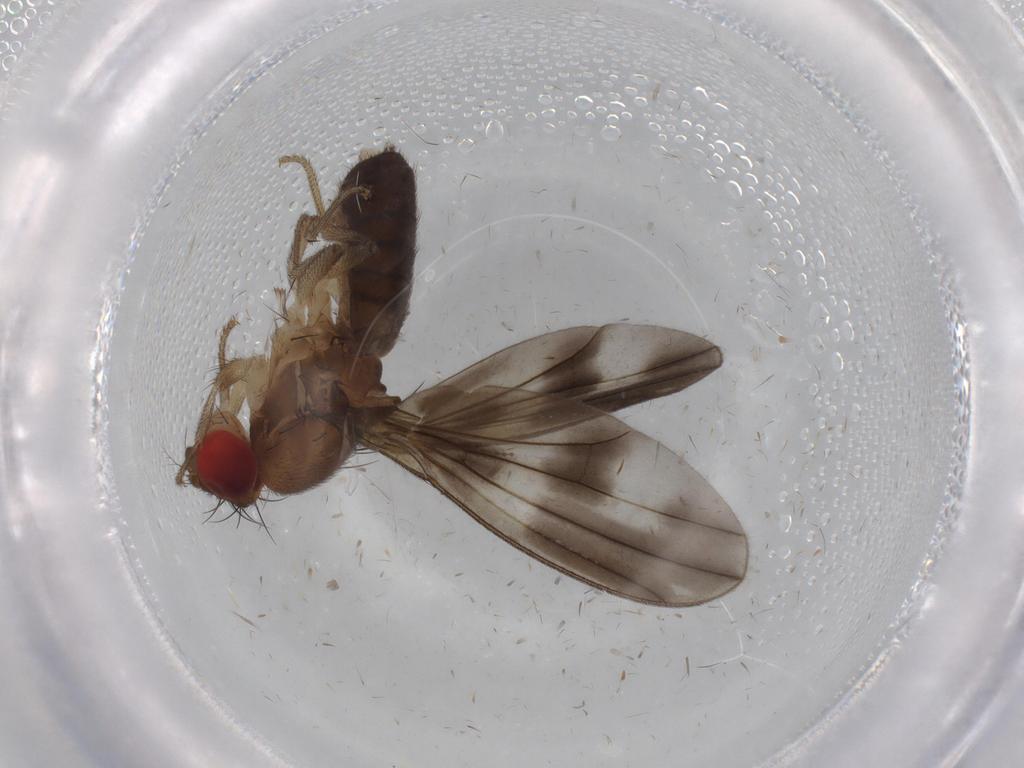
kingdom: Animalia
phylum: Arthropoda
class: Insecta
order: Diptera
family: Drosophilidae
